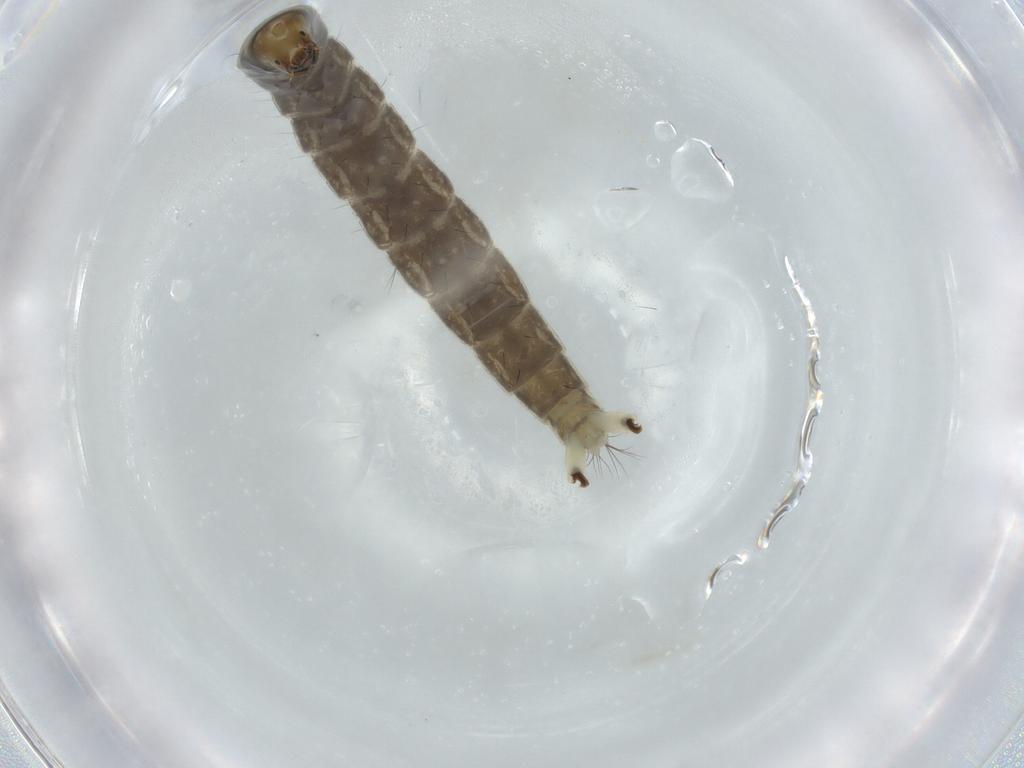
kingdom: Animalia
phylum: Arthropoda
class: Insecta
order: Diptera
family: Chironomidae
